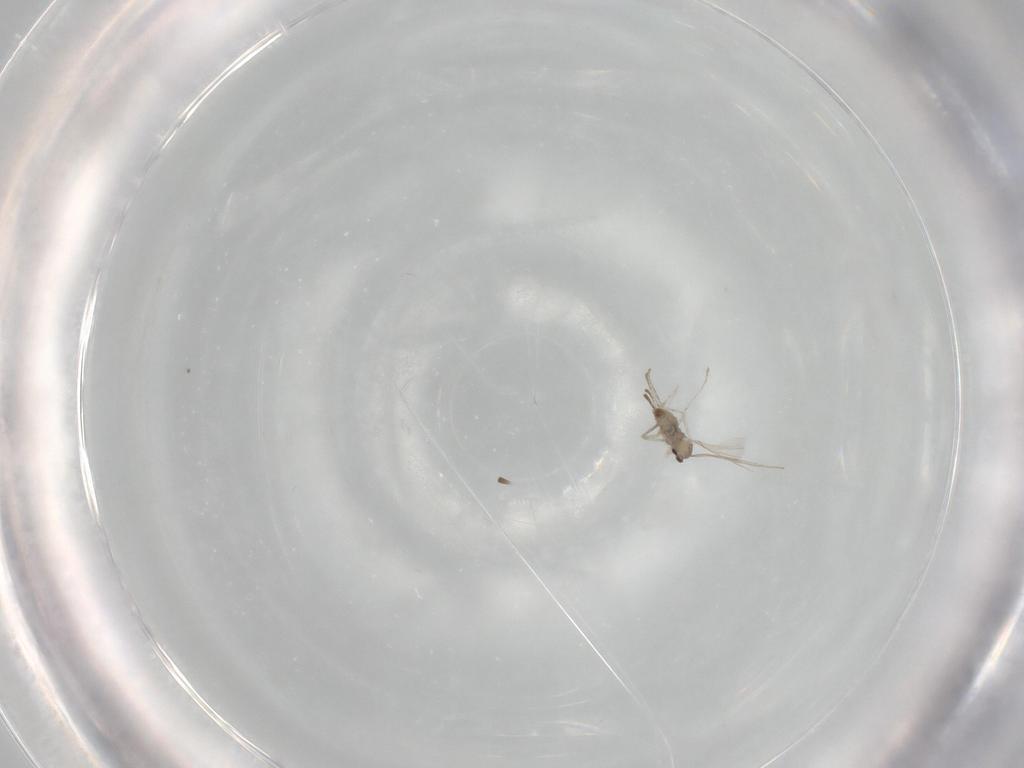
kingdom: Animalia
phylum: Arthropoda
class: Insecta
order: Diptera
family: Cecidomyiidae
